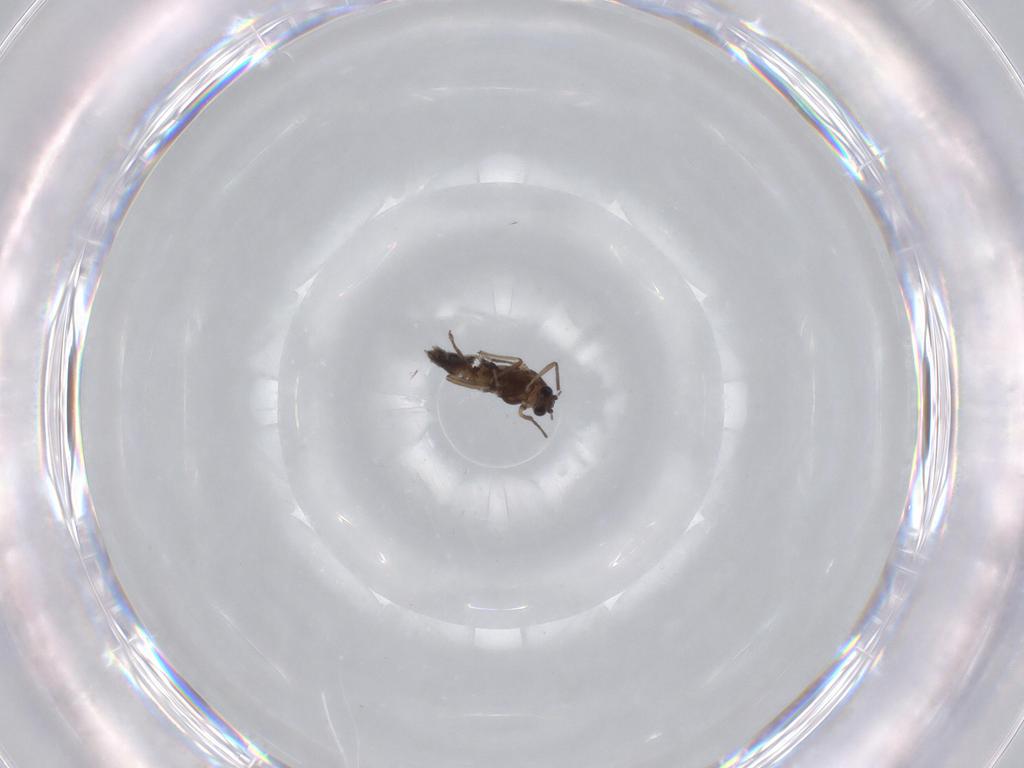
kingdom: Animalia
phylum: Arthropoda
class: Insecta
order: Diptera
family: Chironomidae
